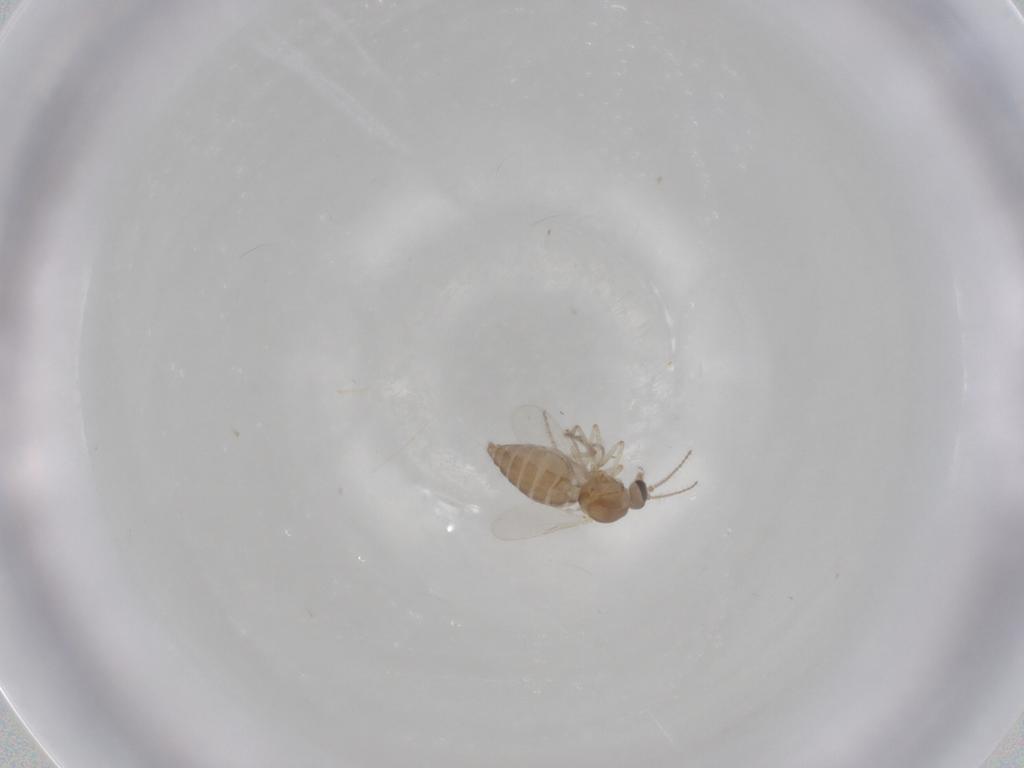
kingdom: Animalia
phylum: Arthropoda
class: Insecta
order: Diptera
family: Ceratopogonidae
